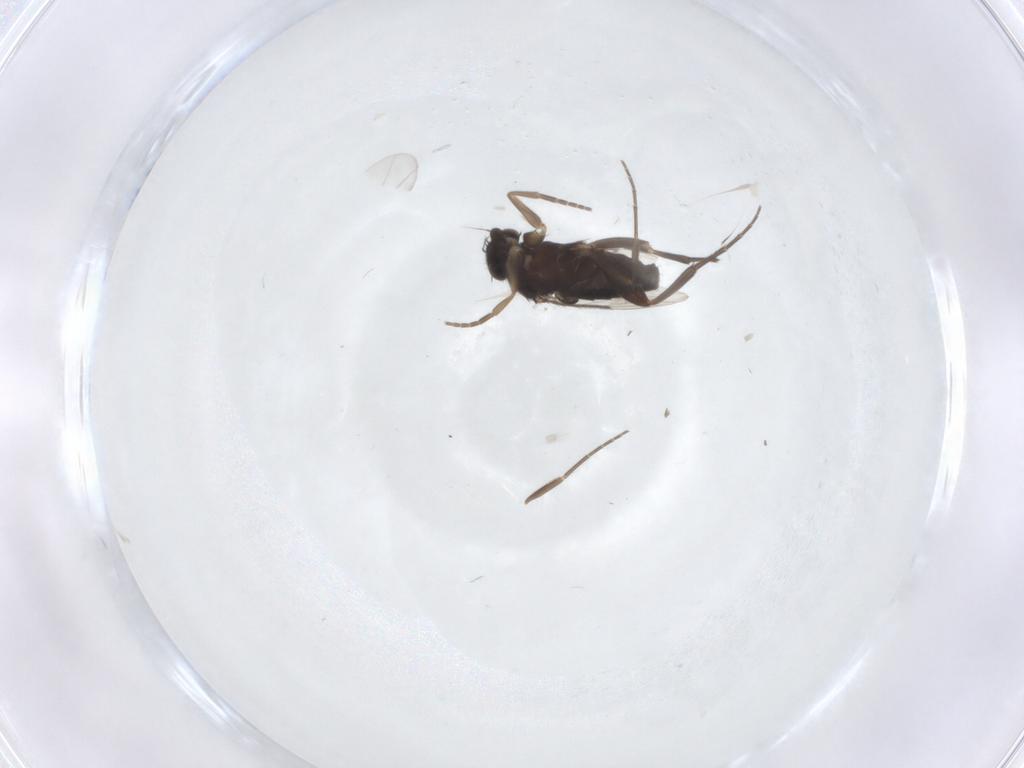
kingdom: Animalia
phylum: Arthropoda
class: Insecta
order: Diptera
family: Phoridae
